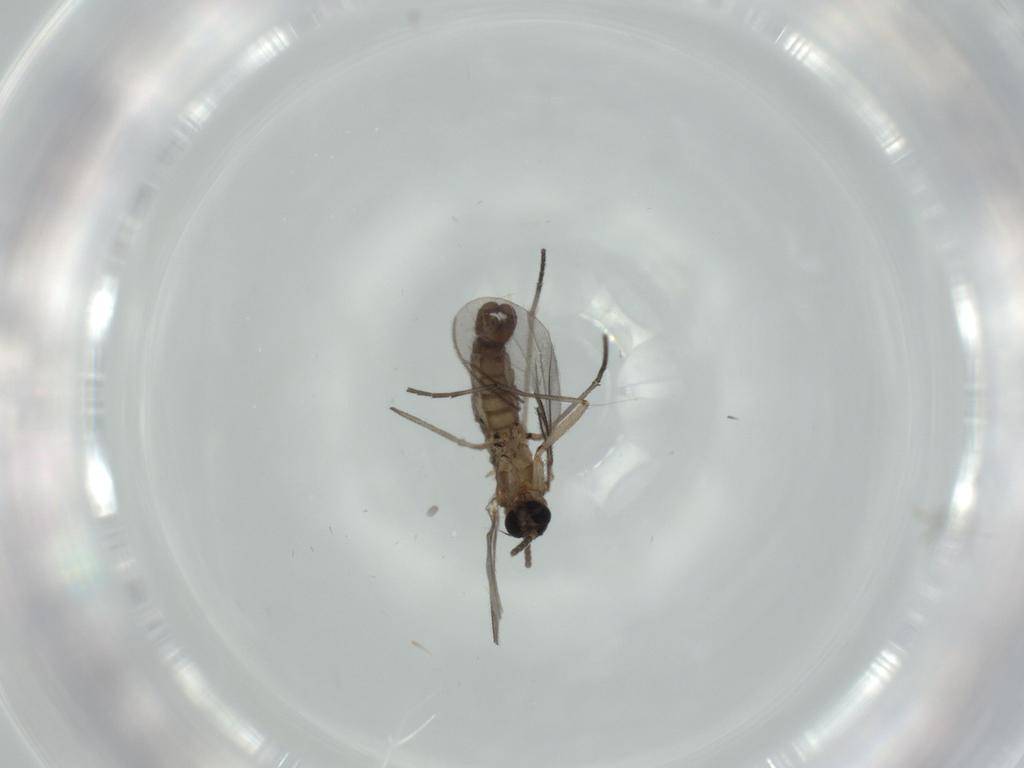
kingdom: Animalia
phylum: Arthropoda
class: Insecta
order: Diptera
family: Sciaridae
